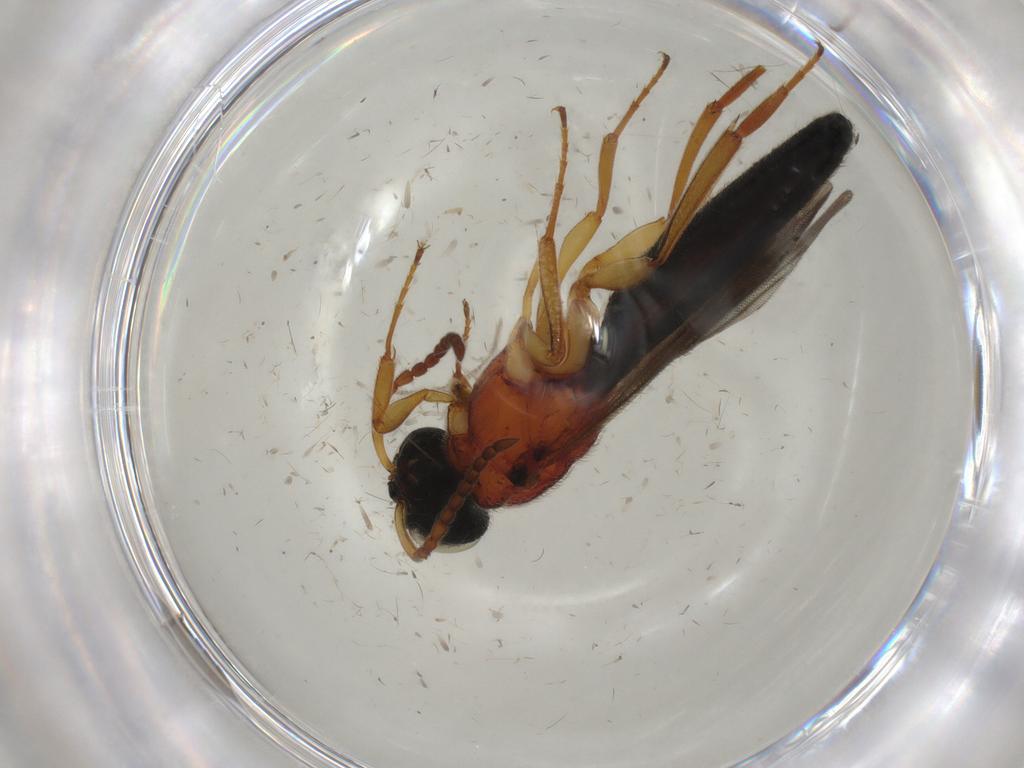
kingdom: Animalia
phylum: Arthropoda
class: Insecta
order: Hymenoptera
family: Scelionidae
